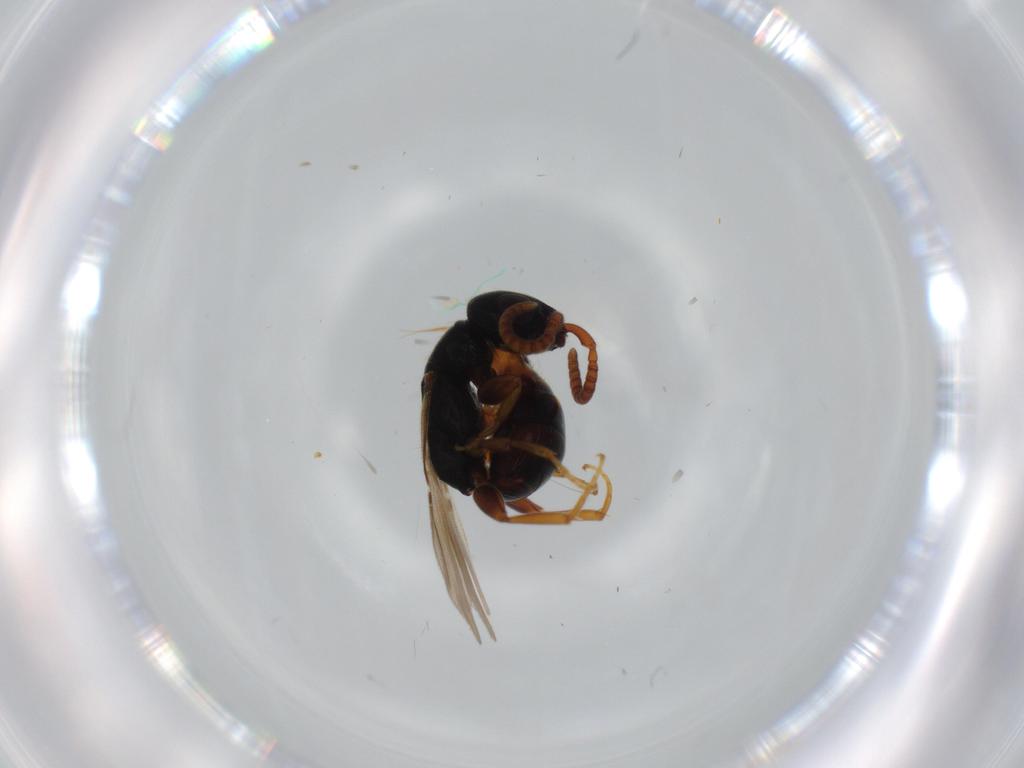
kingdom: Animalia
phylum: Arthropoda
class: Insecta
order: Hymenoptera
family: Bethylidae
